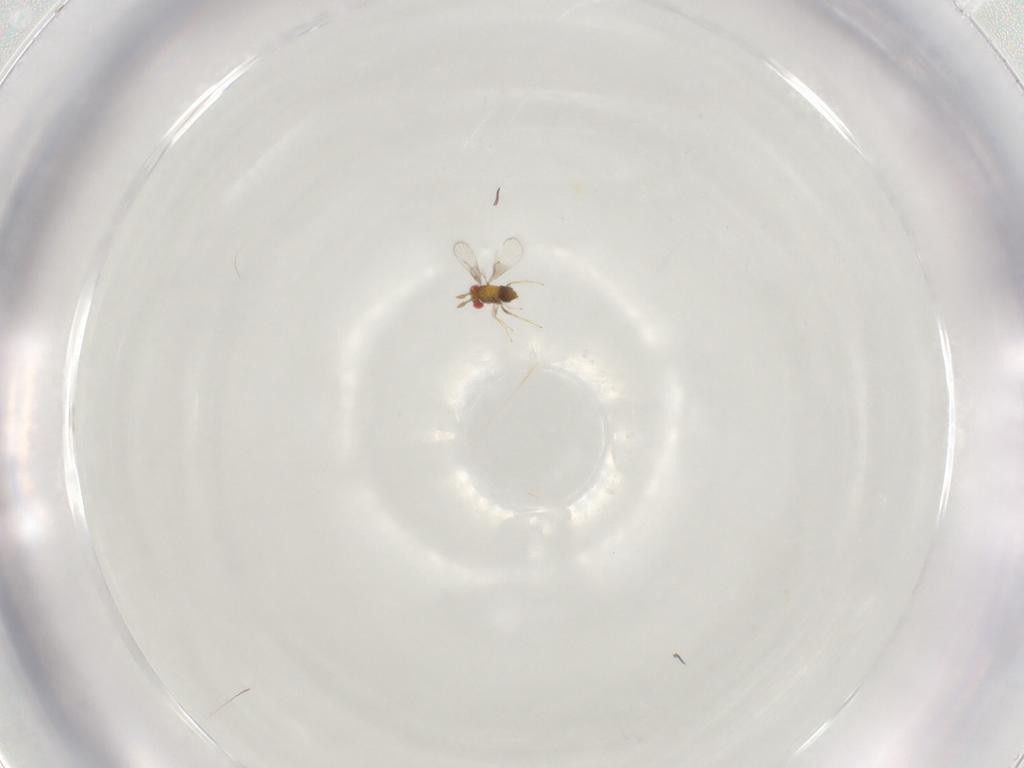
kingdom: Animalia
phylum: Arthropoda
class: Insecta
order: Hymenoptera
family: Trichogrammatidae
